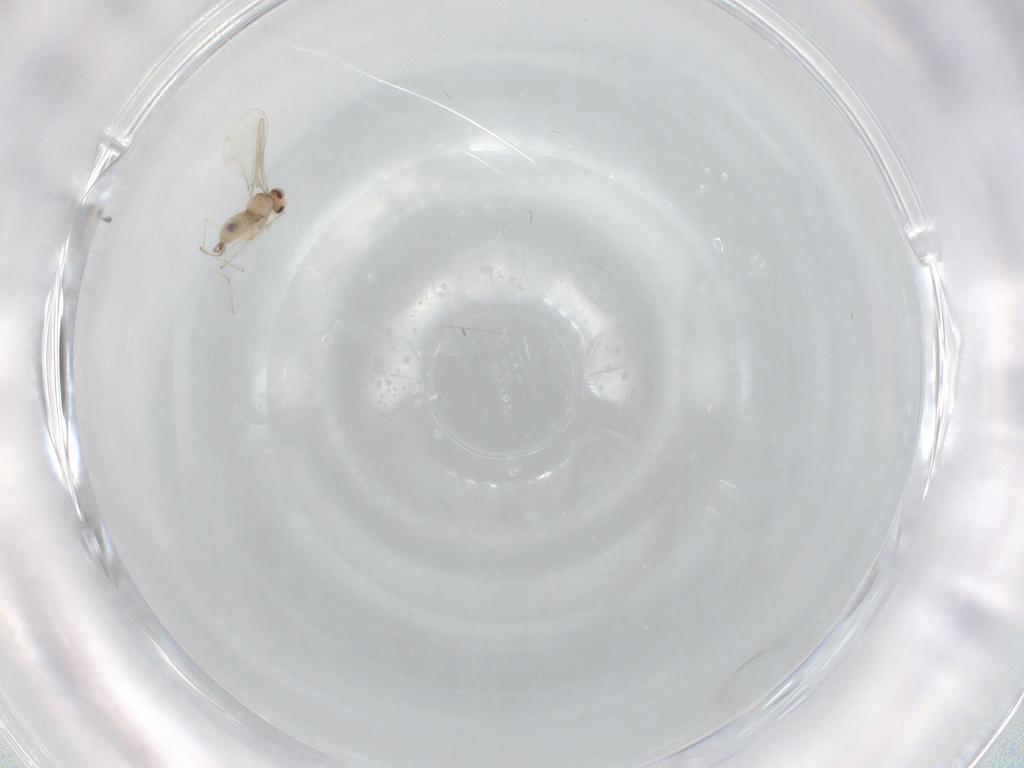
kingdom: Animalia
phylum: Arthropoda
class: Insecta
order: Diptera
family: Cecidomyiidae
